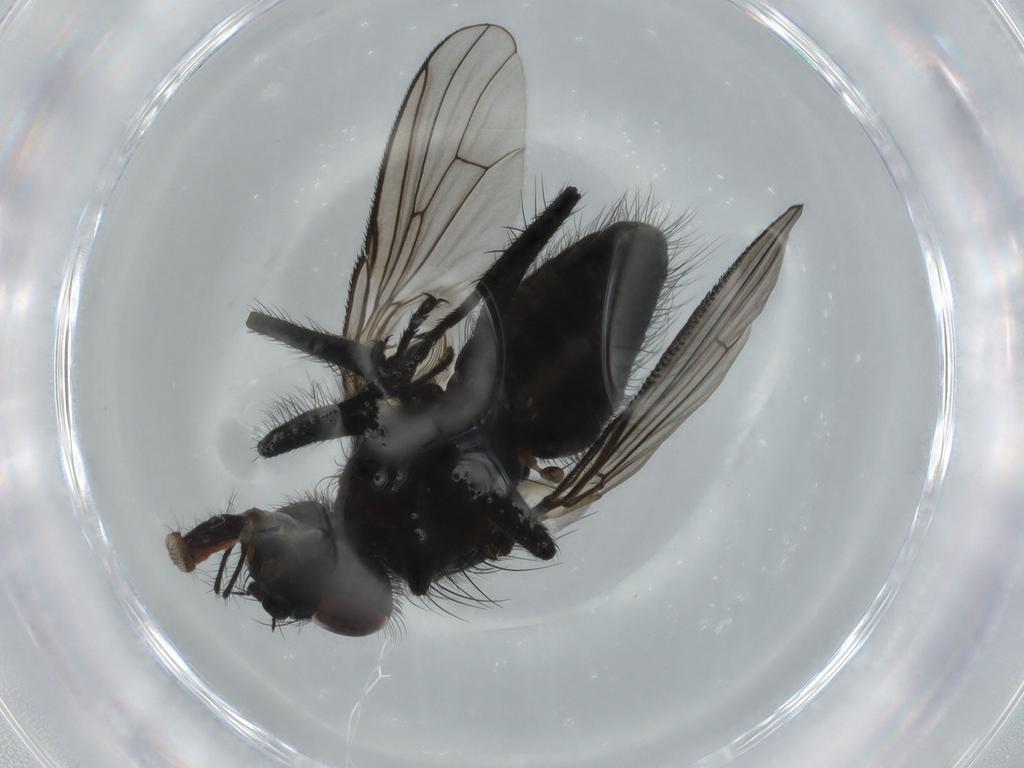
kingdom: Animalia
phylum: Arthropoda
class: Insecta
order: Diptera
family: Muscidae
